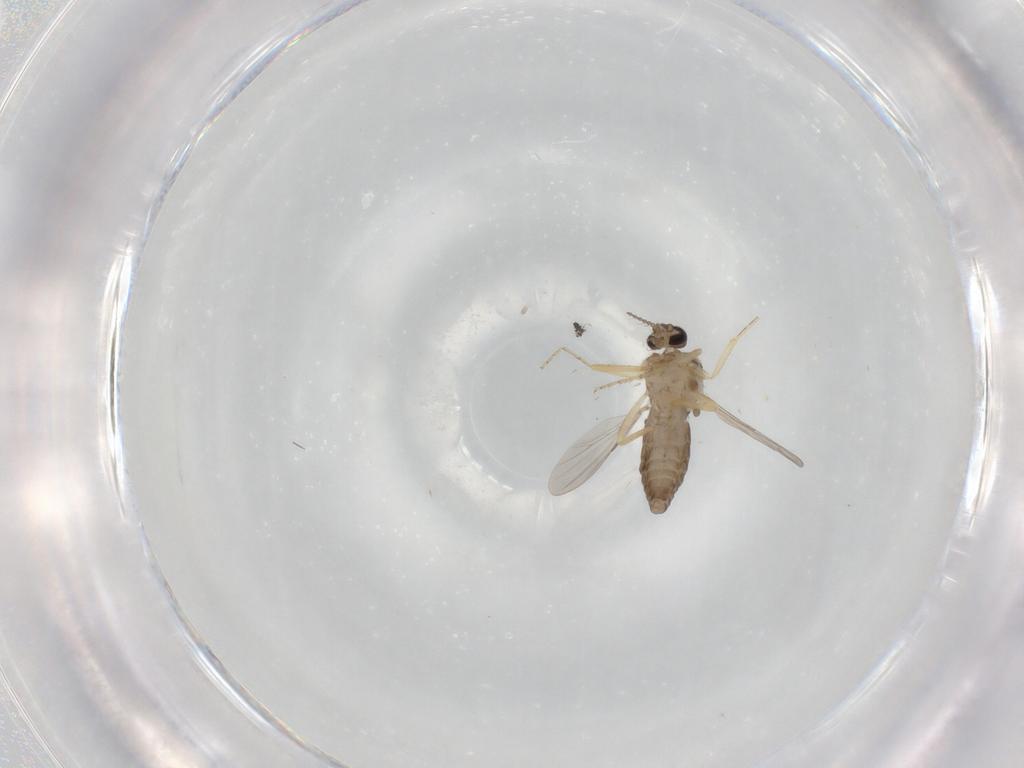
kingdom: Animalia
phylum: Arthropoda
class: Insecta
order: Diptera
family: Ceratopogonidae
